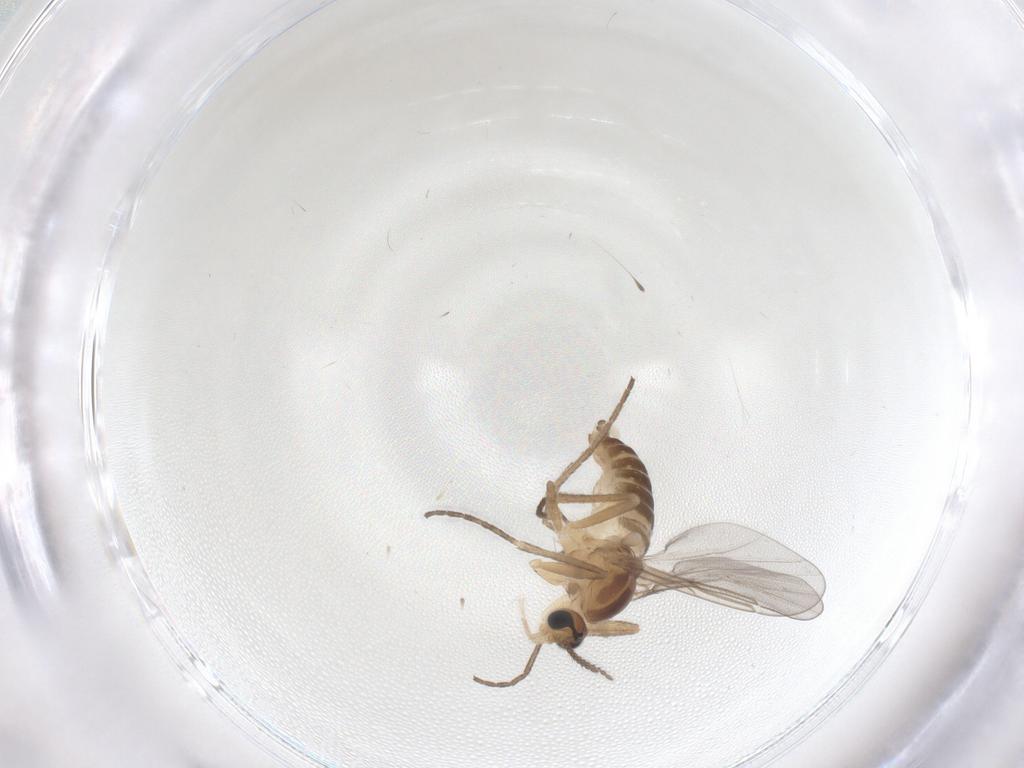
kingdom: Animalia
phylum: Arthropoda
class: Insecta
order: Diptera
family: Cecidomyiidae
